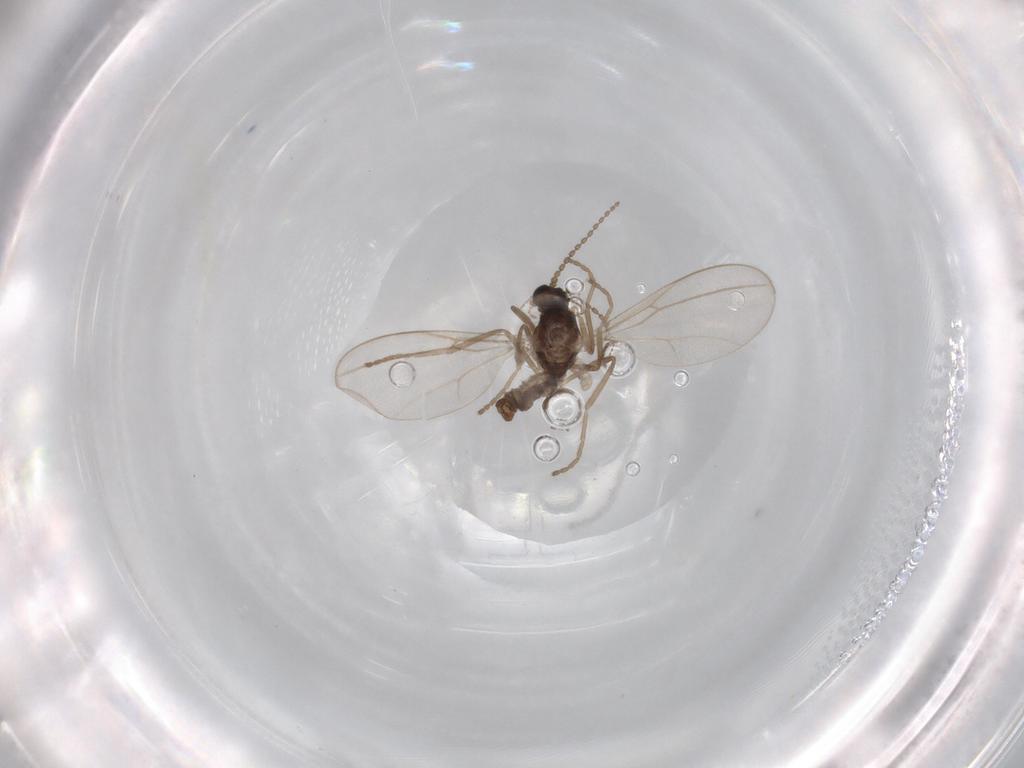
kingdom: Animalia
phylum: Arthropoda
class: Insecta
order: Diptera
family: Cecidomyiidae
